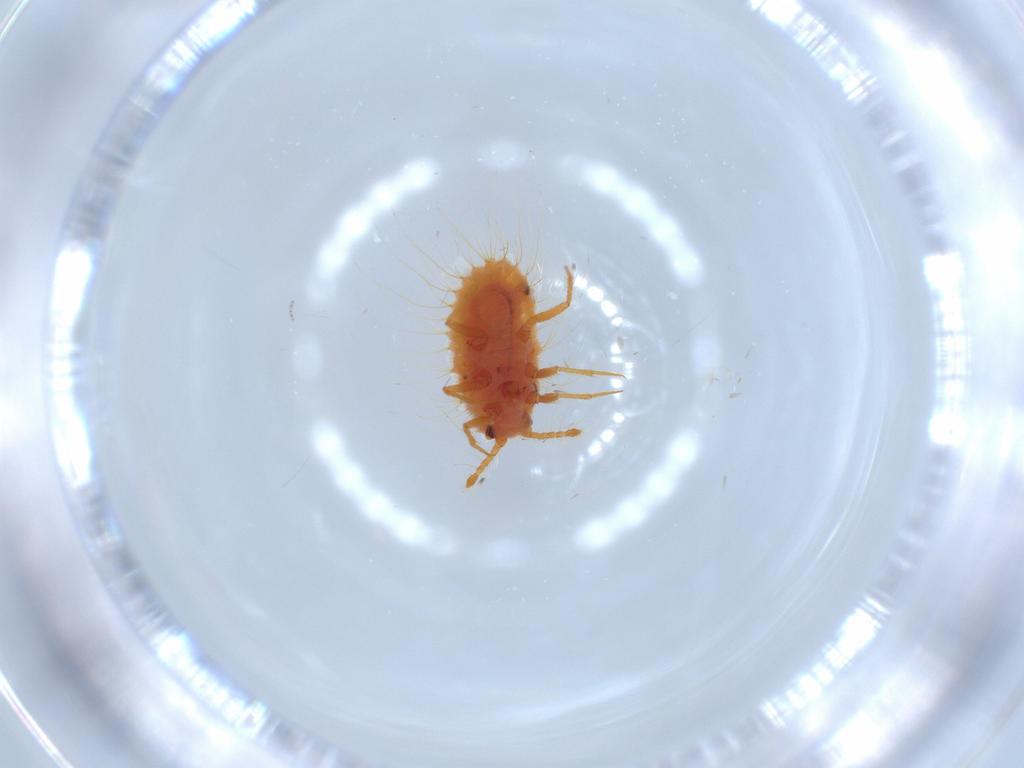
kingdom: Animalia
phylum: Arthropoda
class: Insecta
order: Hemiptera
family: Coccoidea_incertae_sedis
